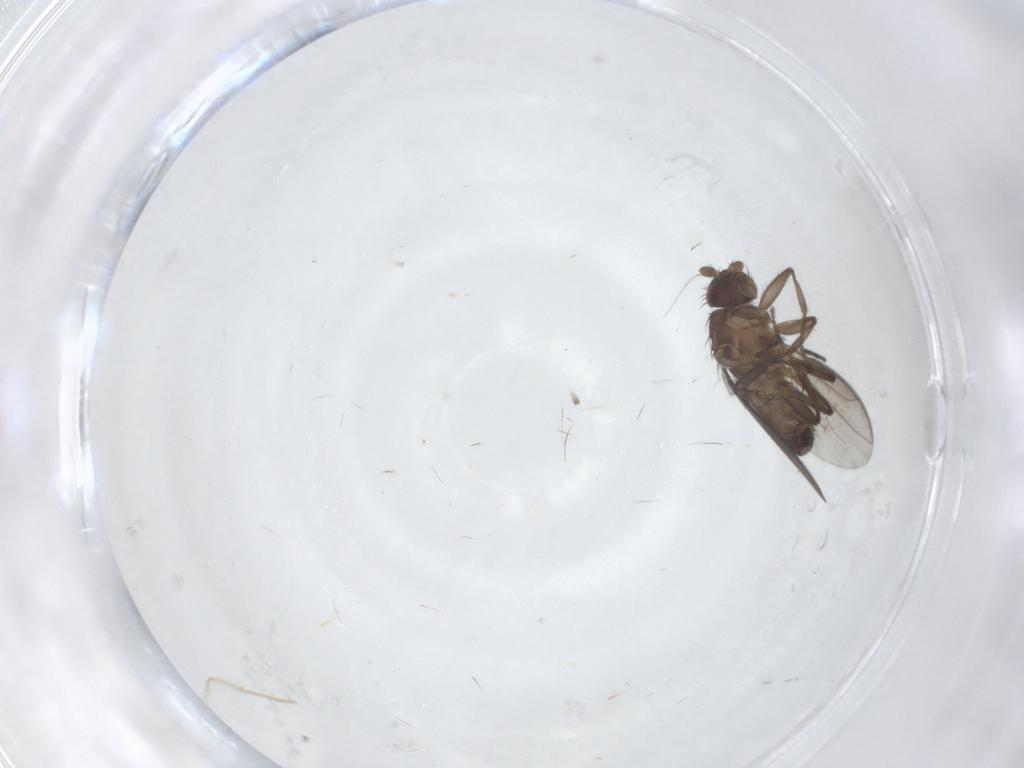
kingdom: Animalia
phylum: Arthropoda
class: Insecta
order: Diptera
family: Sphaeroceridae
